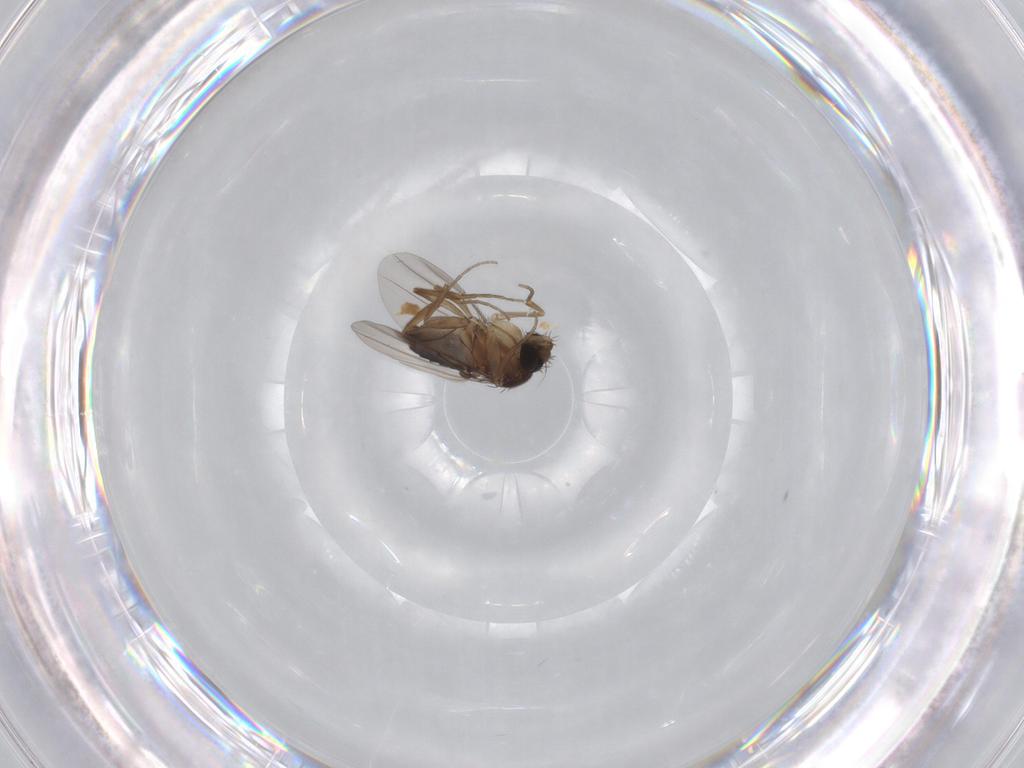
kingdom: Animalia
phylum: Arthropoda
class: Insecta
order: Diptera
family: Phoridae
